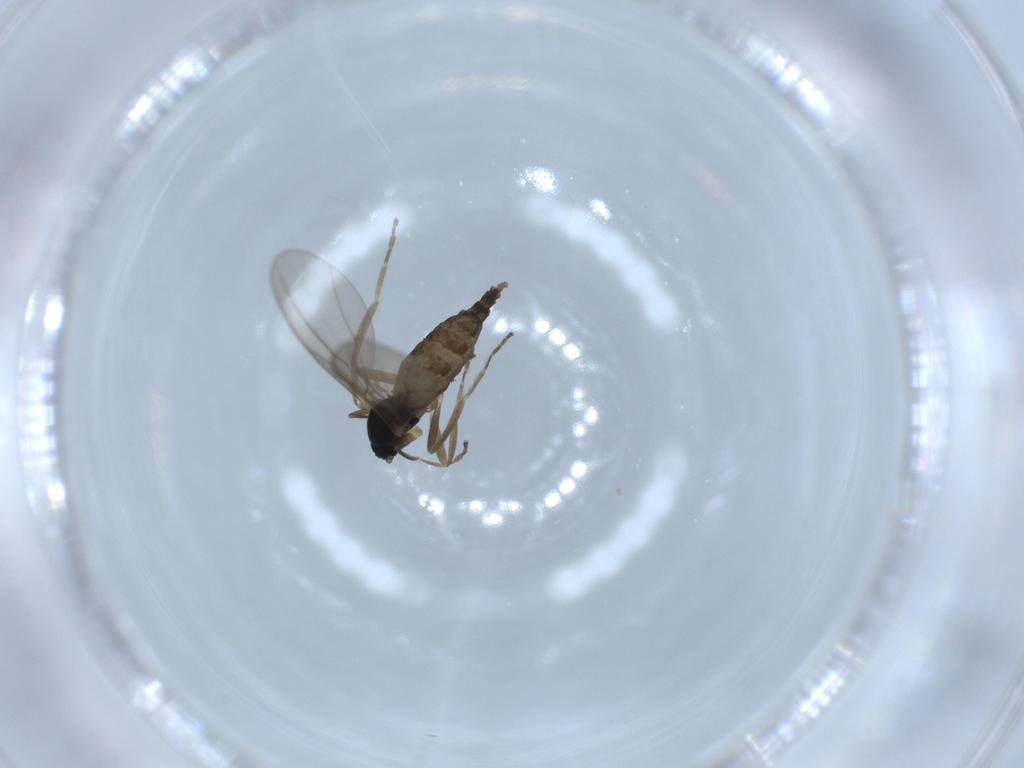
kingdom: Animalia
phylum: Arthropoda
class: Insecta
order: Diptera
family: Cecidomyiidae
